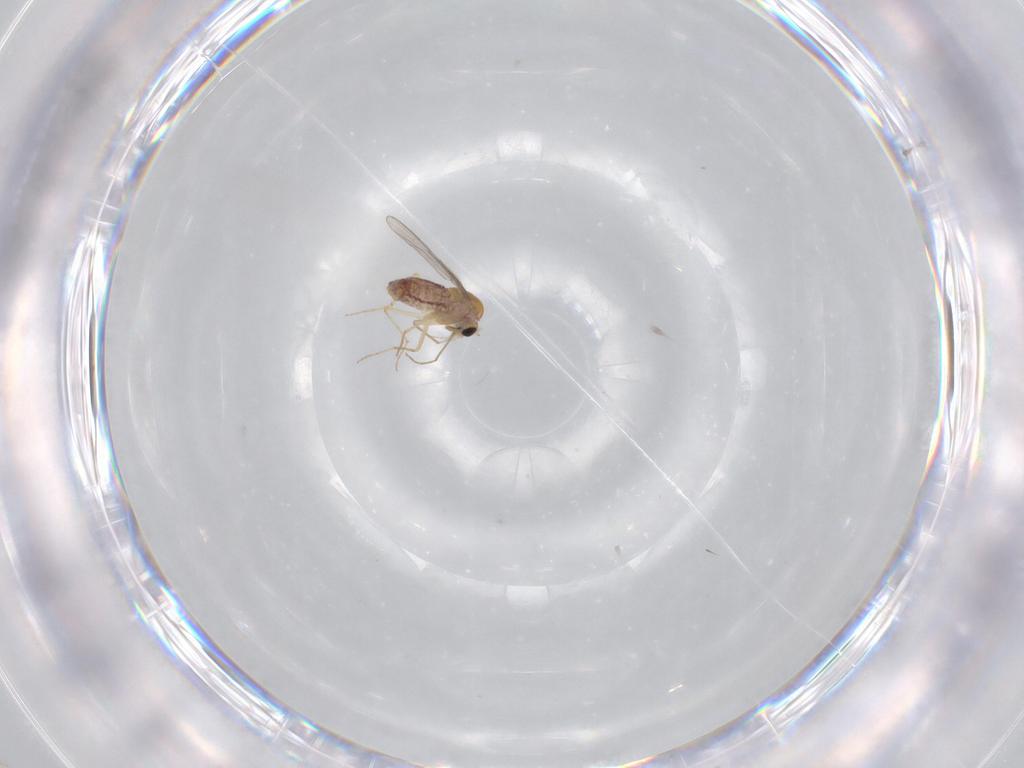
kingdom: Animalia
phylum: Arthropoda
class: Insecta
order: Diptera
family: Chironomidae
